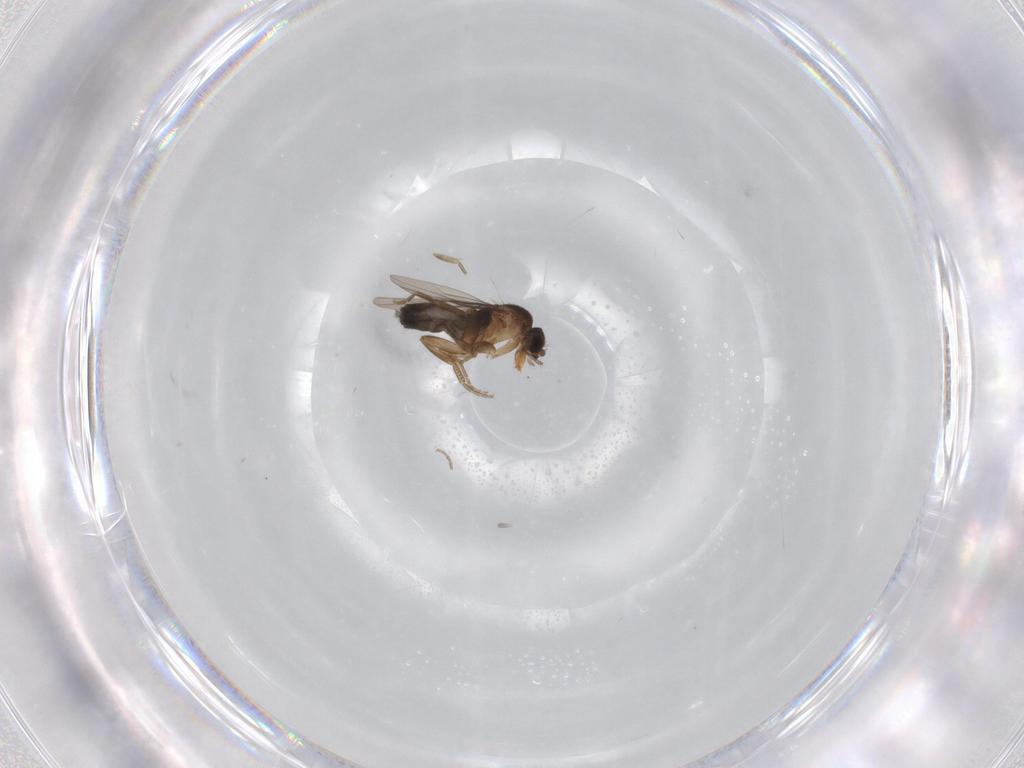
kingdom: Animalia
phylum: Arthropoda
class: Insecta
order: Diptera
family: Phoridae
